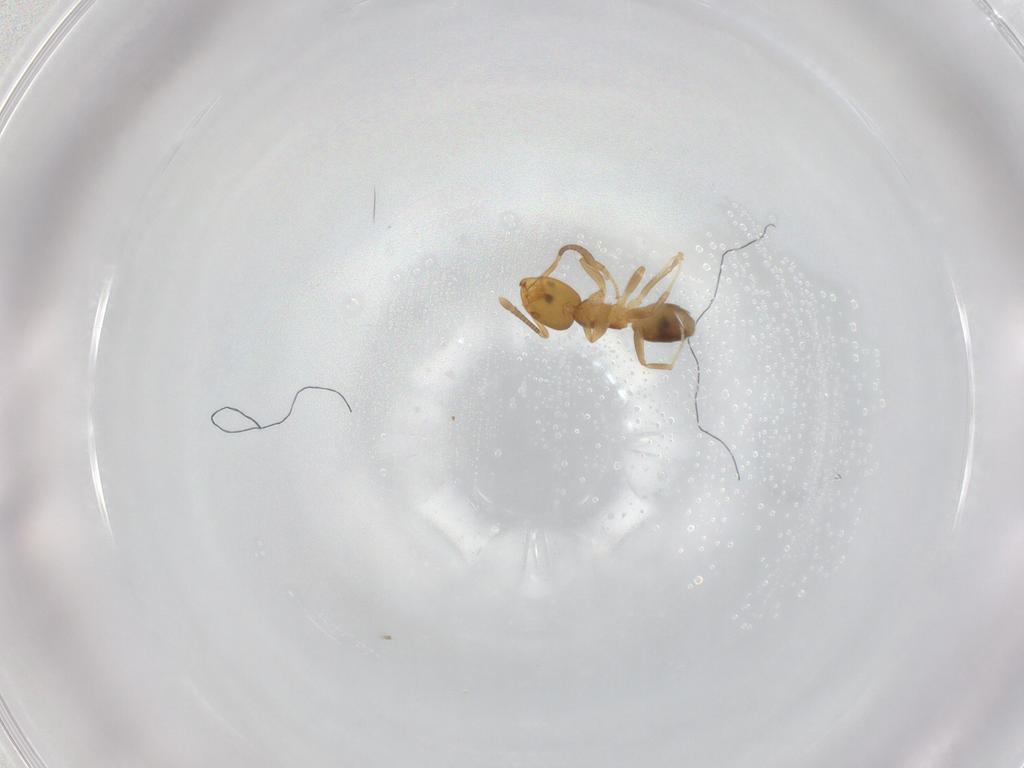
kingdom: Animalia
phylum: Arthropoda
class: Insecta
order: Hymenoptera
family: Formicidae
